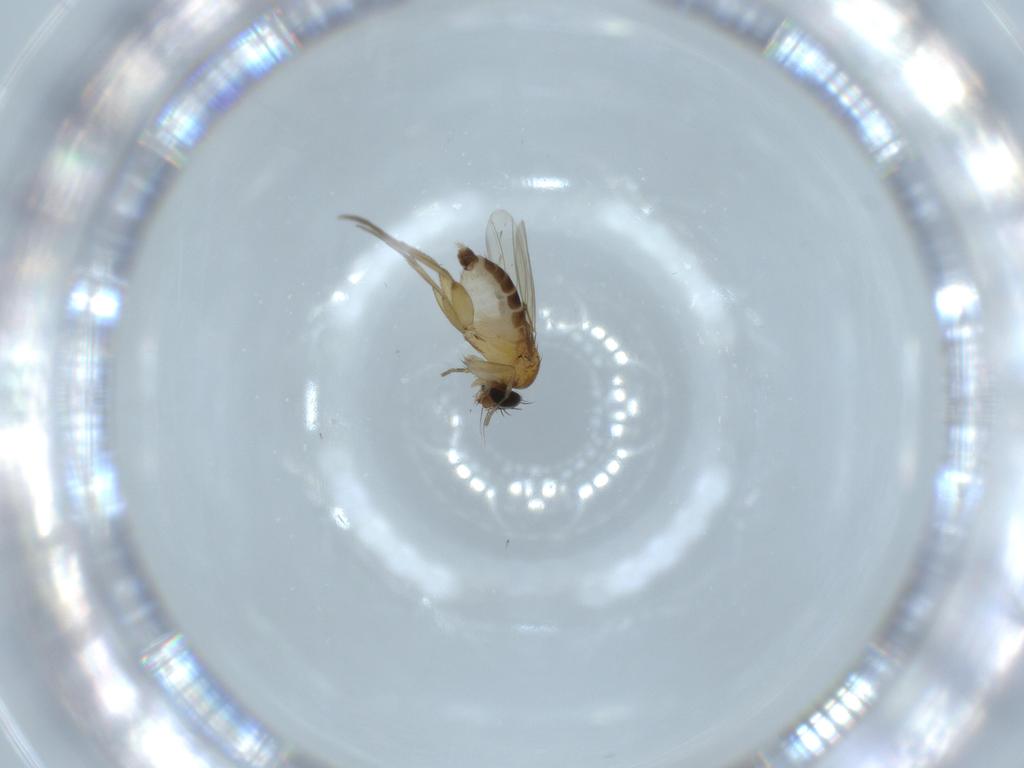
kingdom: Animalia
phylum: Arthropoda
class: Insecta
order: Diptera
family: Phoridae
